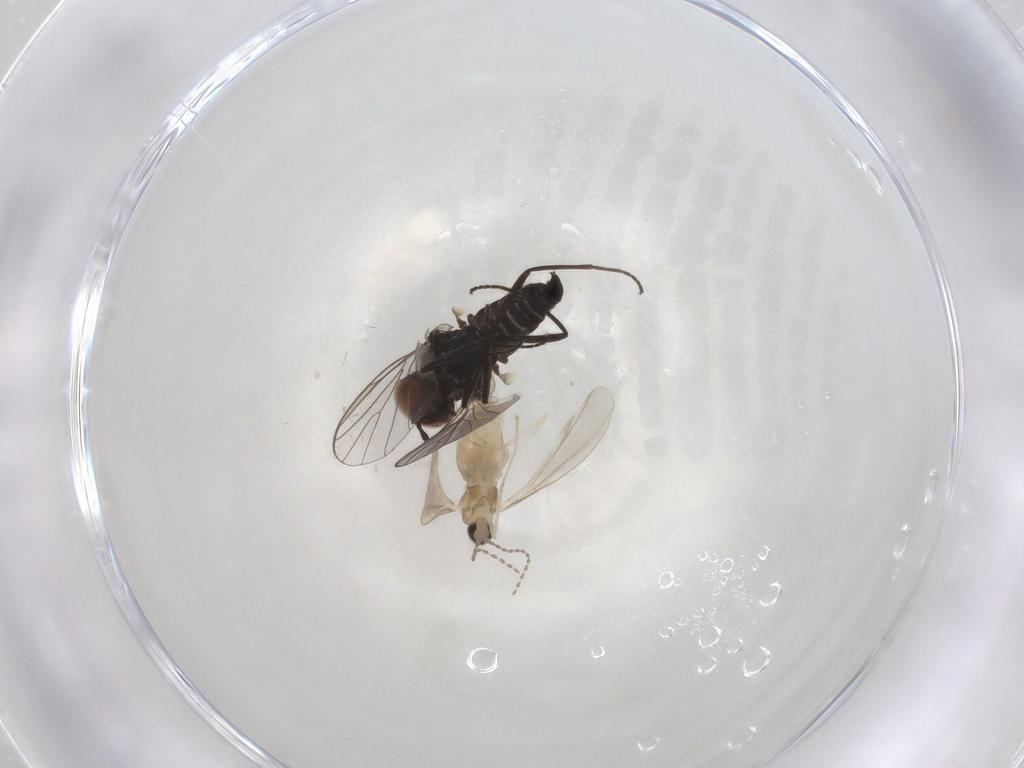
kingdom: Animalia
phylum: Arthropoda
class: Insecta
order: Diptera
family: Cecidomyiidae
